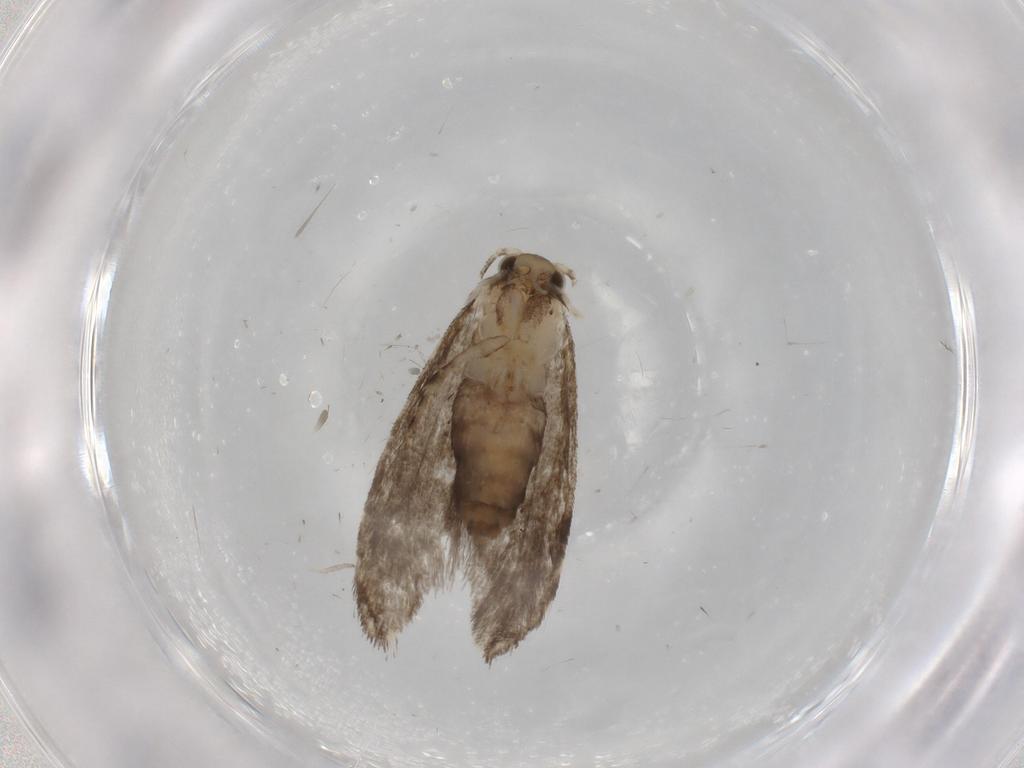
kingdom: Animalia
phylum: Arthropoda
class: Insecta
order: Lepidoptera
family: Tineidae
